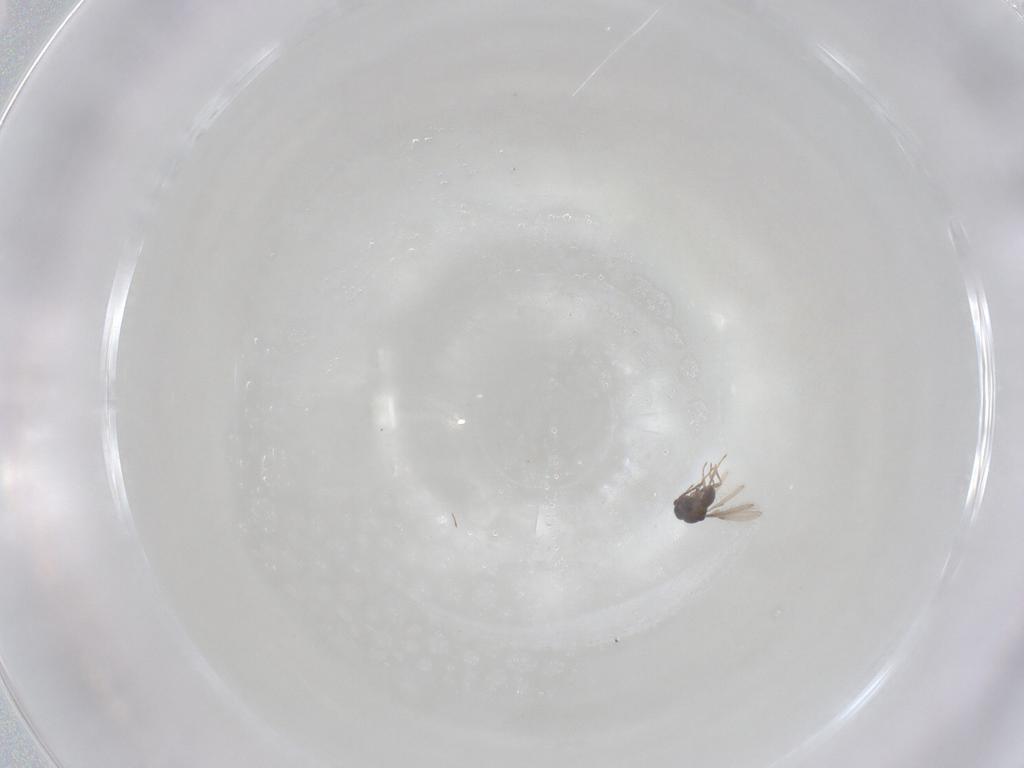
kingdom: Animalia
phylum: Arthropoda
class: Insecta
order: Hymenoptera
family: Scelionidae
